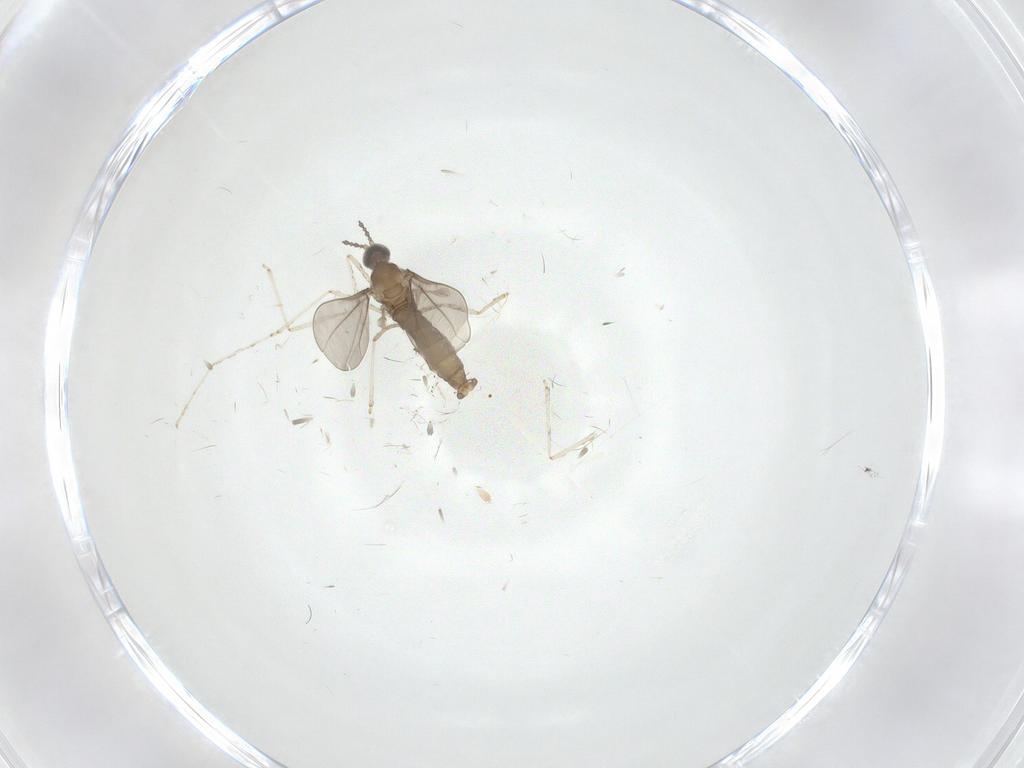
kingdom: Animalia
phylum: Arthropoda
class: Insecta
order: Diptera
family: Cecidomyiidae
